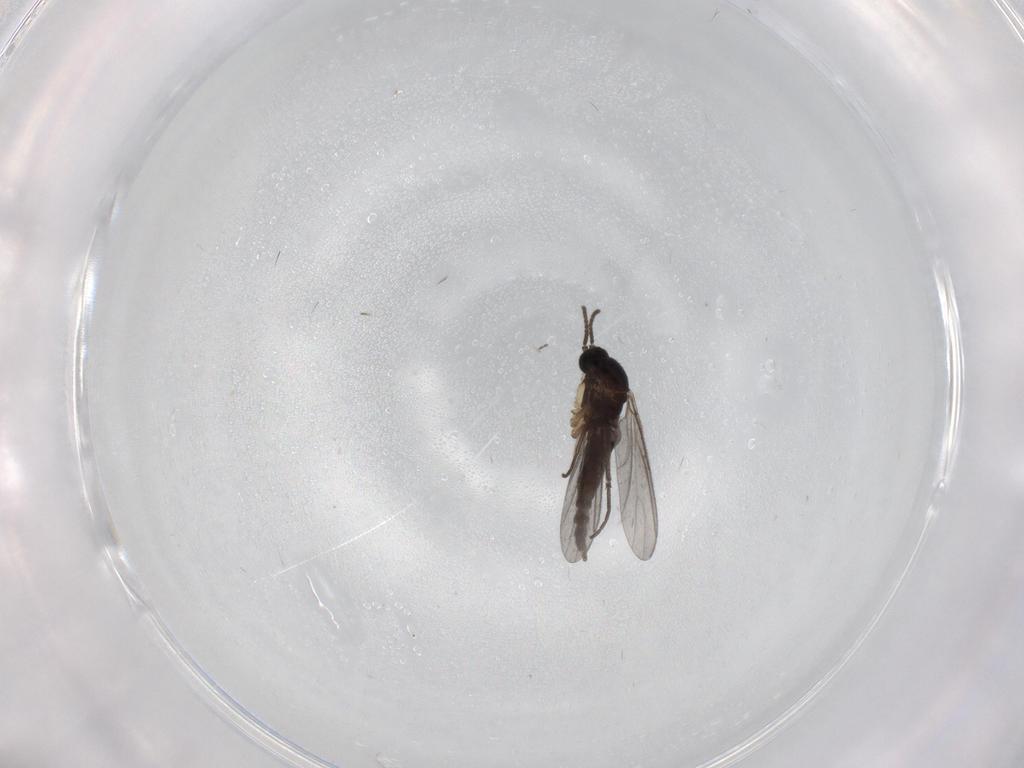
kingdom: Animalia
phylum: Arthropoda
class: Insecta
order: Diptera
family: Sciaridae
